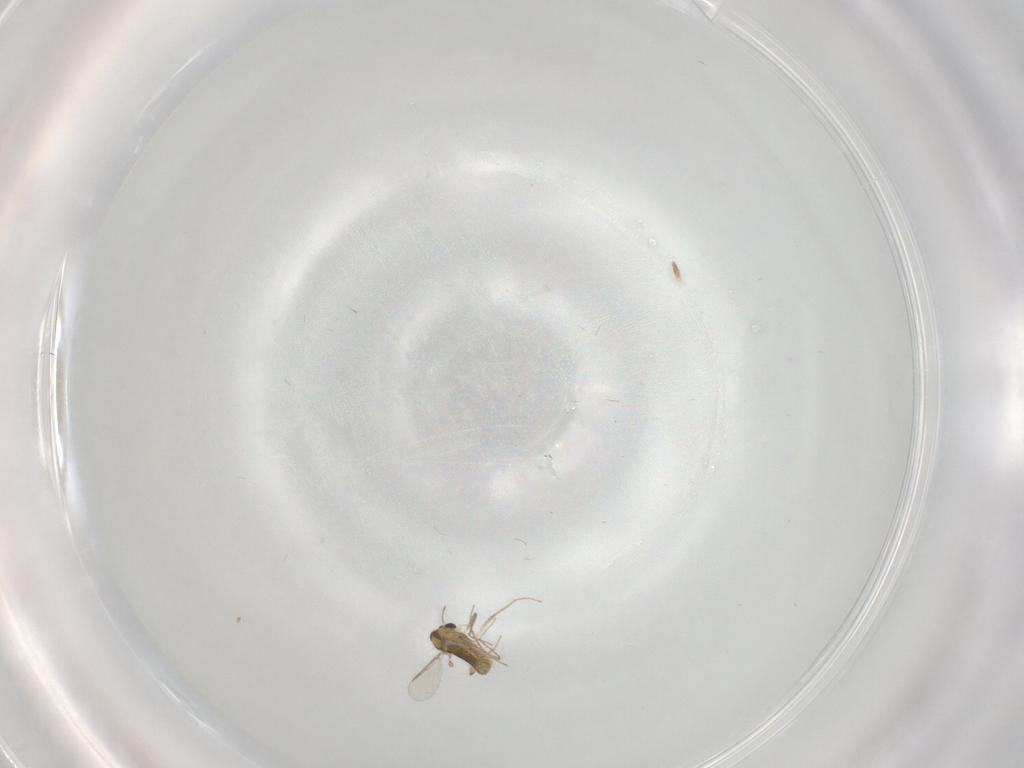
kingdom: Animalia
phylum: Arthropoda
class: Insecta
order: Diptera
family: Chironomidae
